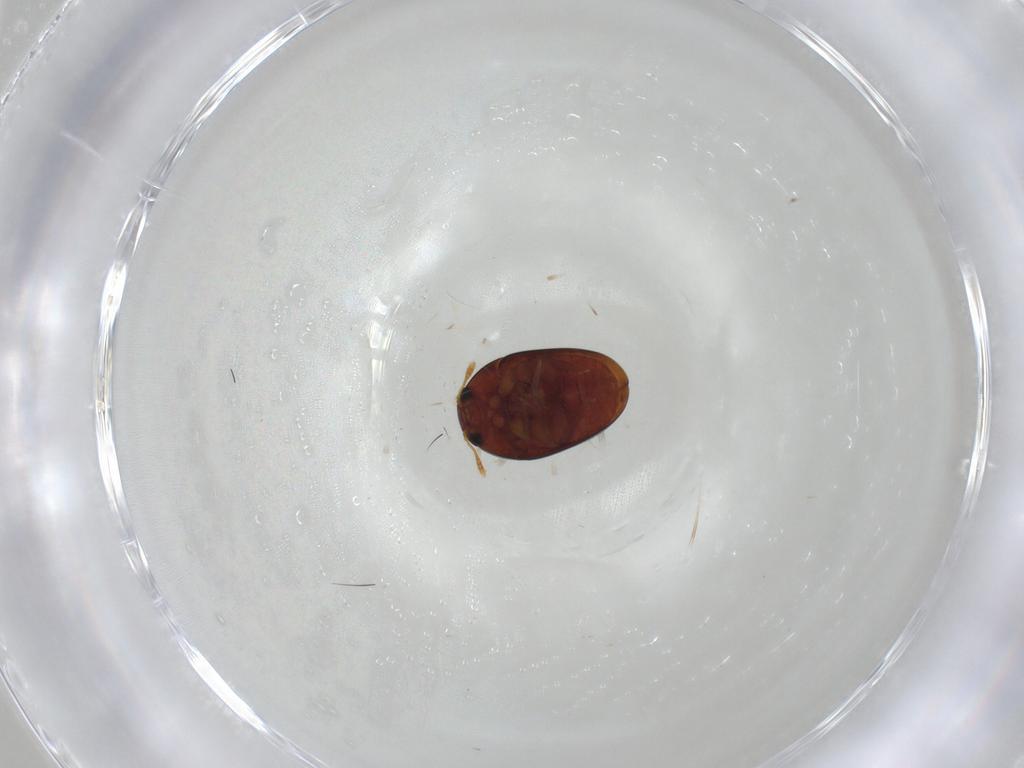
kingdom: Animalia
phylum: Arthropoda
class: Insecta
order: Coleoptera
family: Phalacridae
